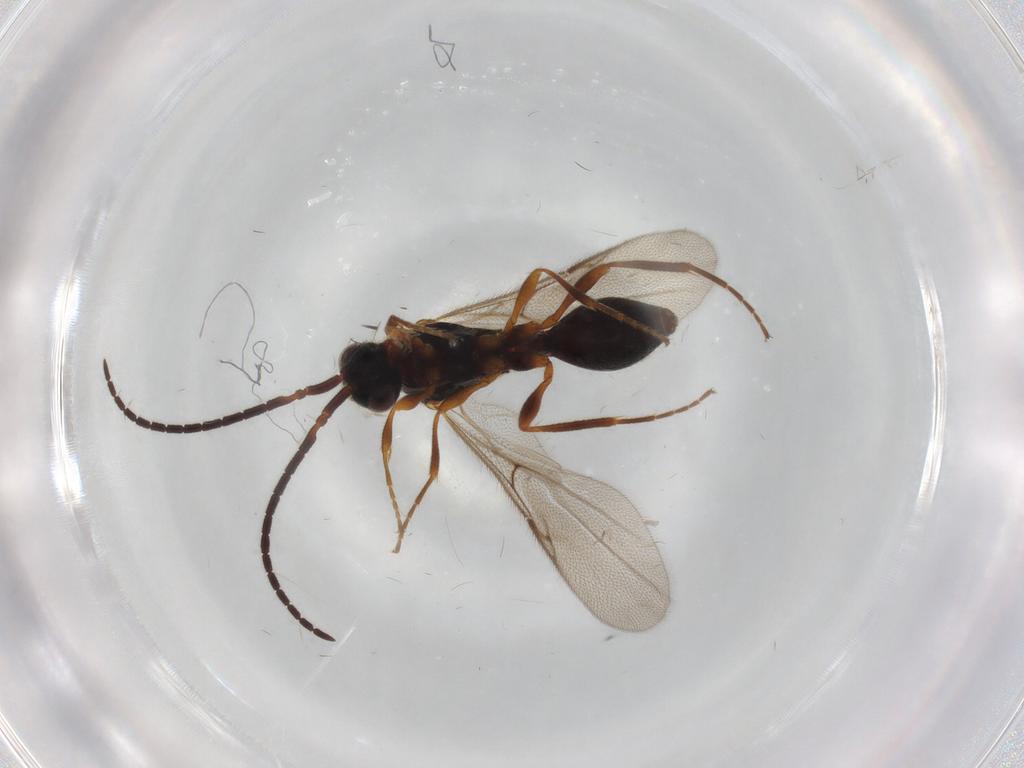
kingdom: Animalia
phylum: Arthropoda
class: Insecta
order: Hymenoptera
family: Formicidae
